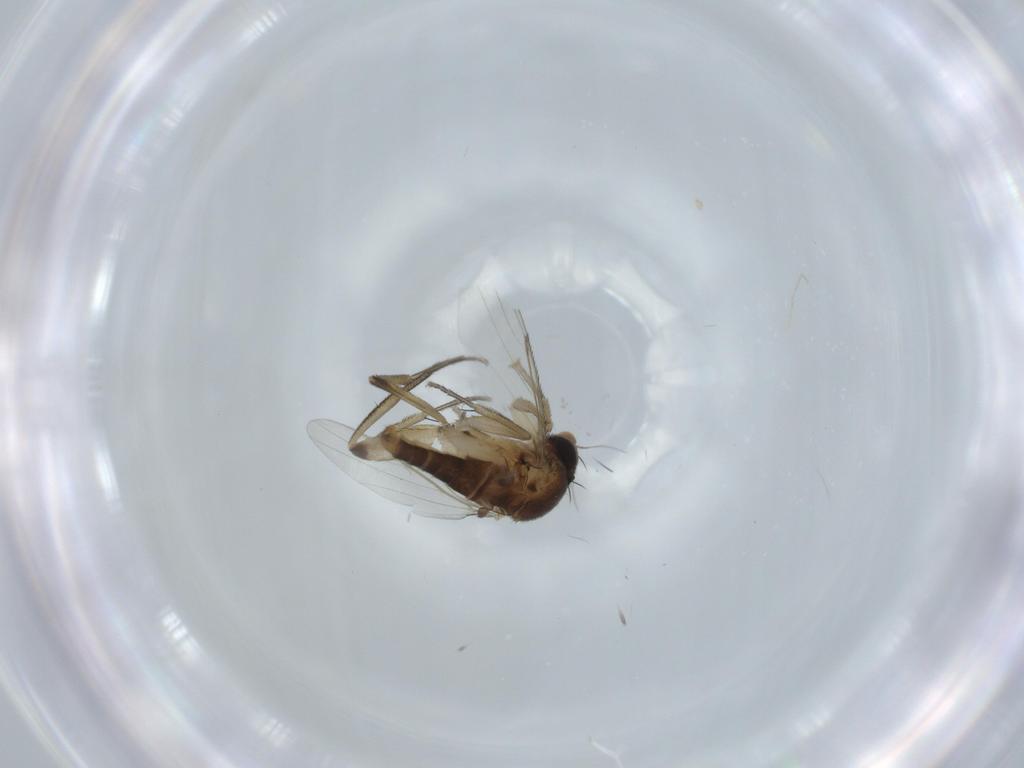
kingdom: Animalia
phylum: Arthropoda
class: Insecta
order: Diptera
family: Phoridae
